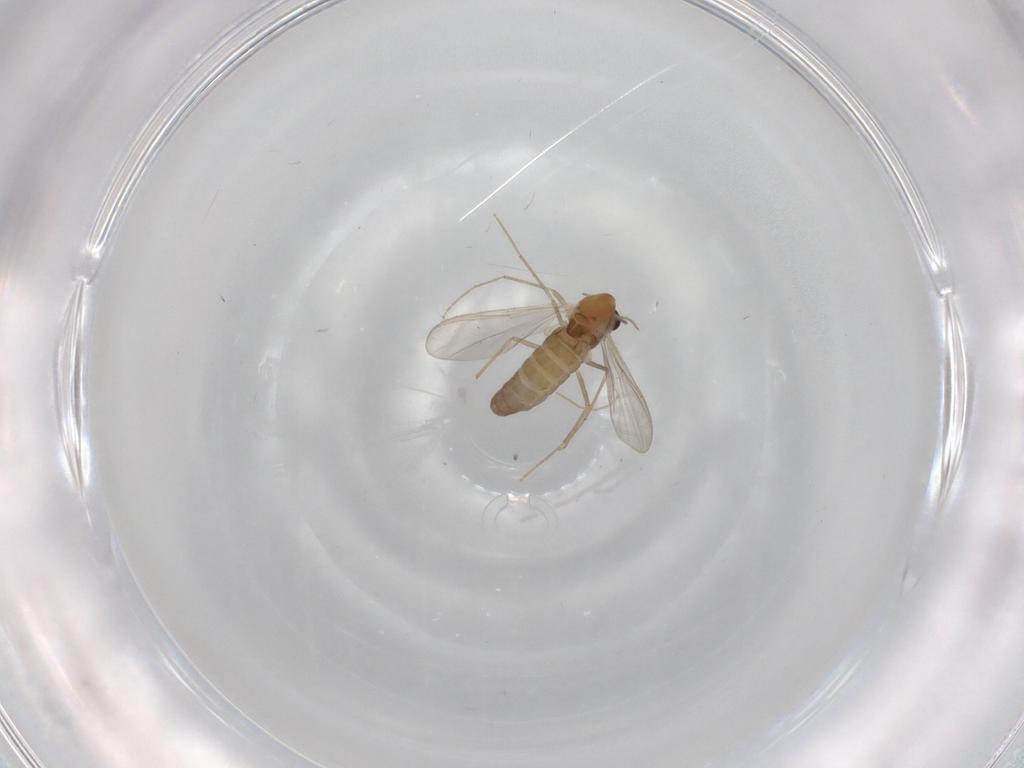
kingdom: Animalia
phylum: Arthropoda
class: Insecta
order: Diptera
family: Chironomidae
